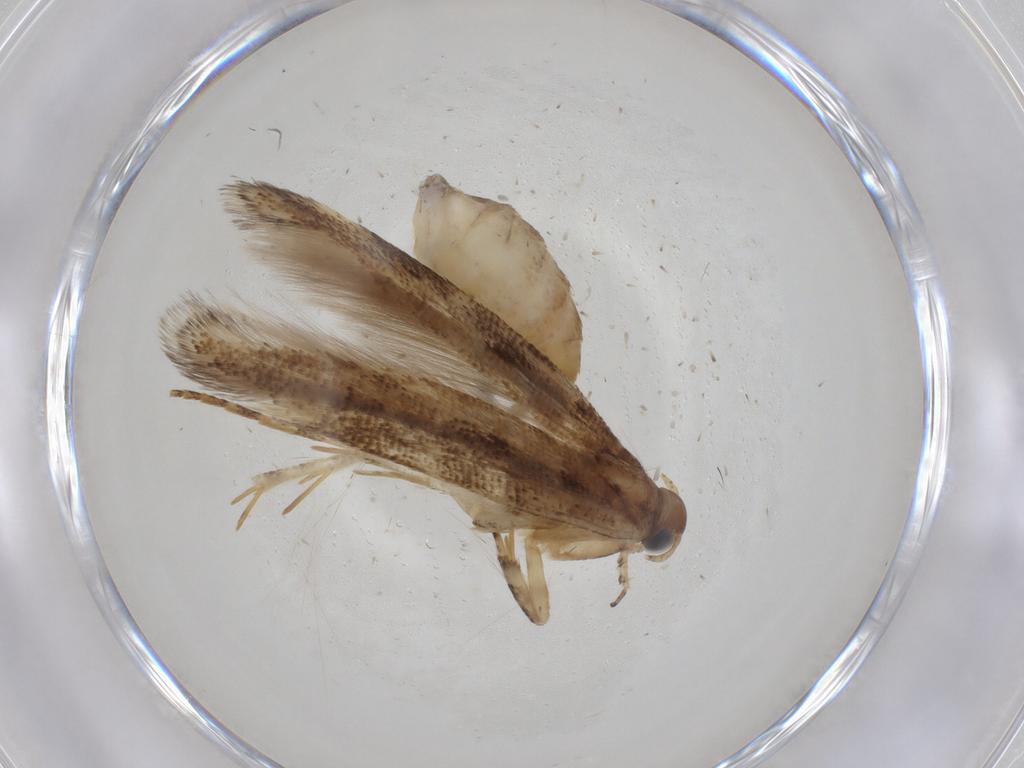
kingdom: Animalia
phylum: Arthropoda
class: Insecta
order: Lepidoptera
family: Gelechiidae
